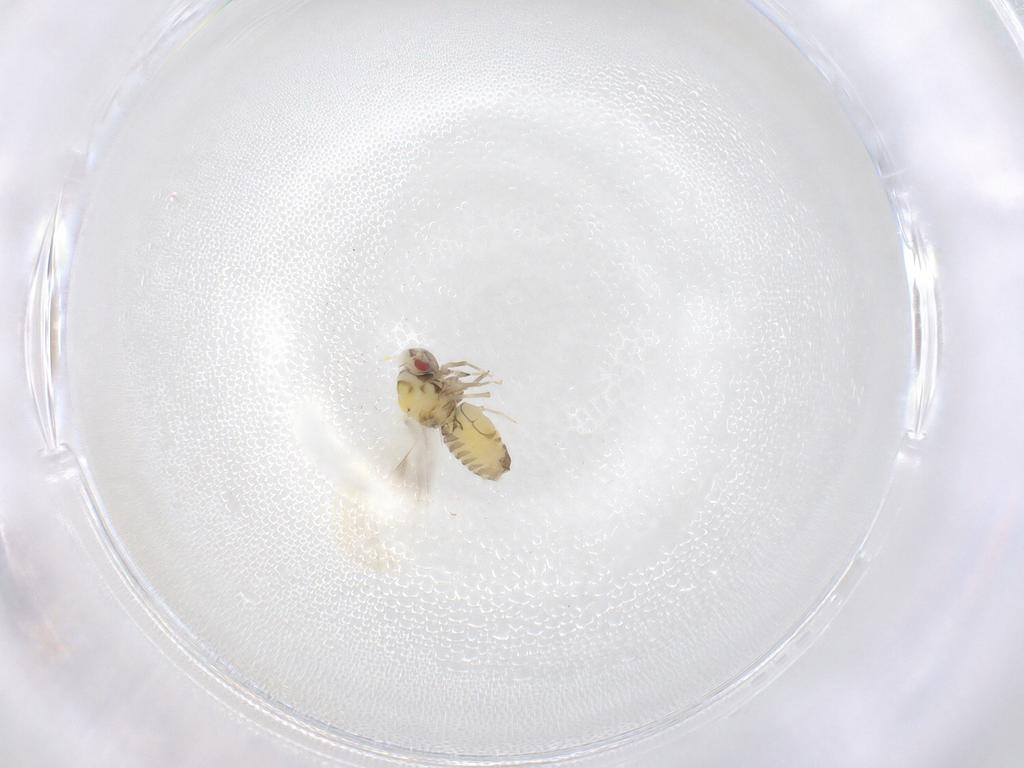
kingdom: Animalia
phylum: Arthropoda
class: Insecta
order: Hemiptera
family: Aleyrodidae
